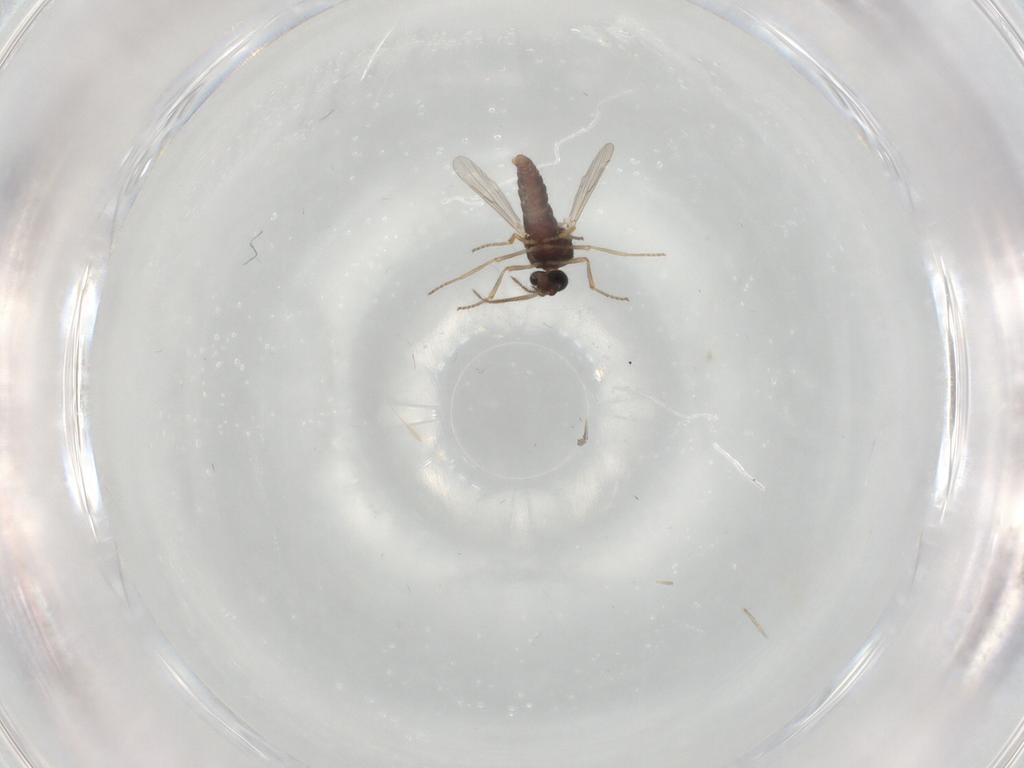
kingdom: Animalia
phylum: Arthropoda
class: Insecta
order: Diptera
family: Ceratopogonidae
